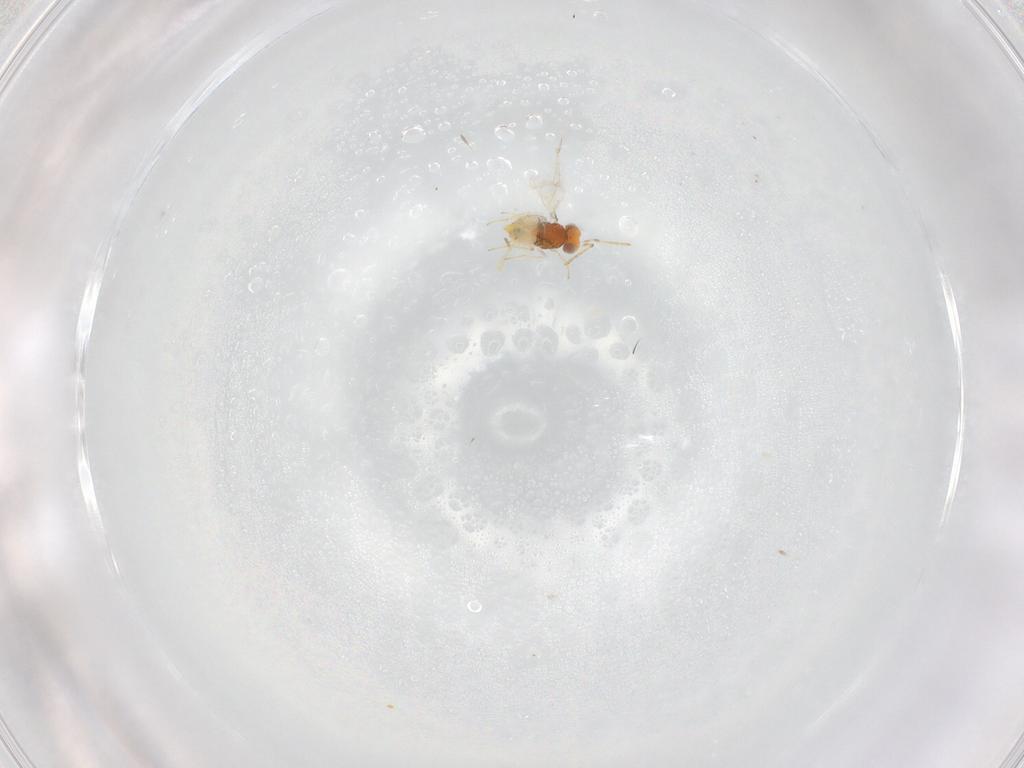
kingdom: Animalia
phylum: Arthropoda
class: Insecta
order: Hymenoptera
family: Aphelinidae
